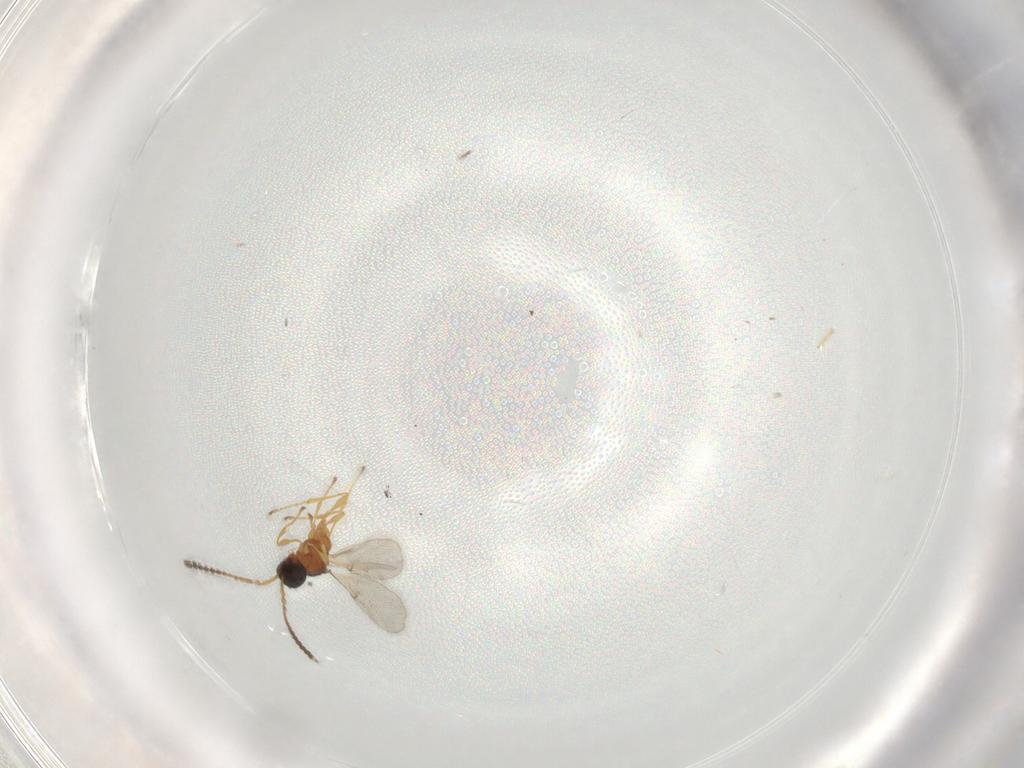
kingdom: Animalia
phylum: Arthropoda
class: Insecta
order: Hymenoptera
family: Diapriidae
